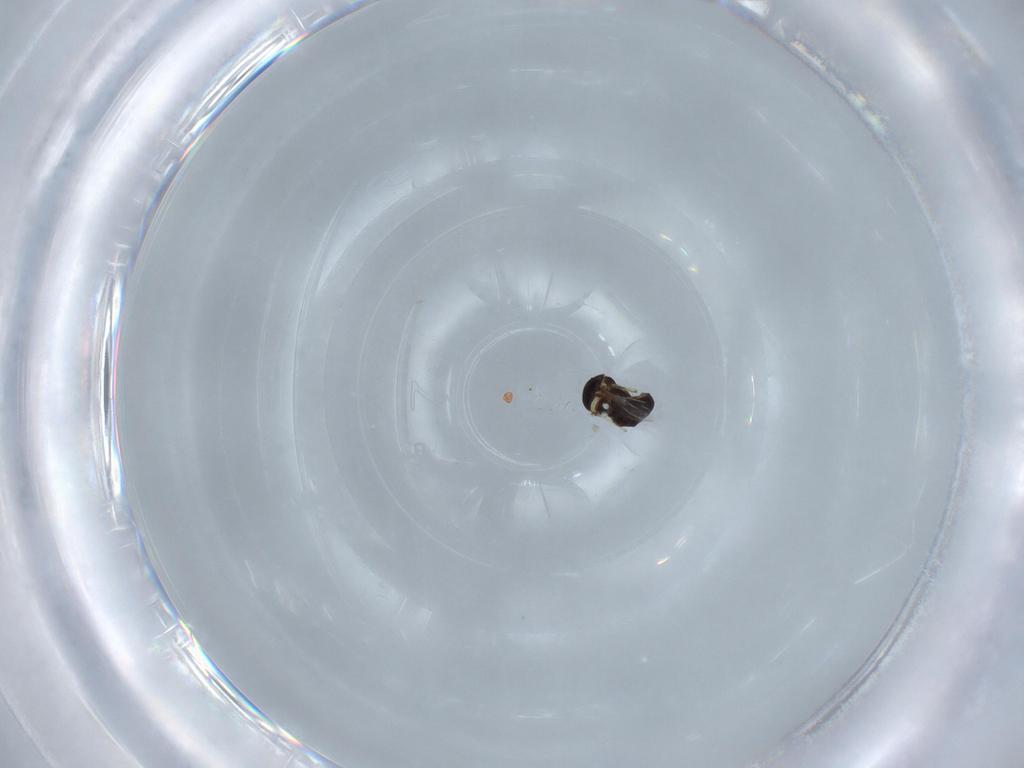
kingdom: Animalia
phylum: Arthropoda
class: Insecta
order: Diptera
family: Ceratopogonidae
